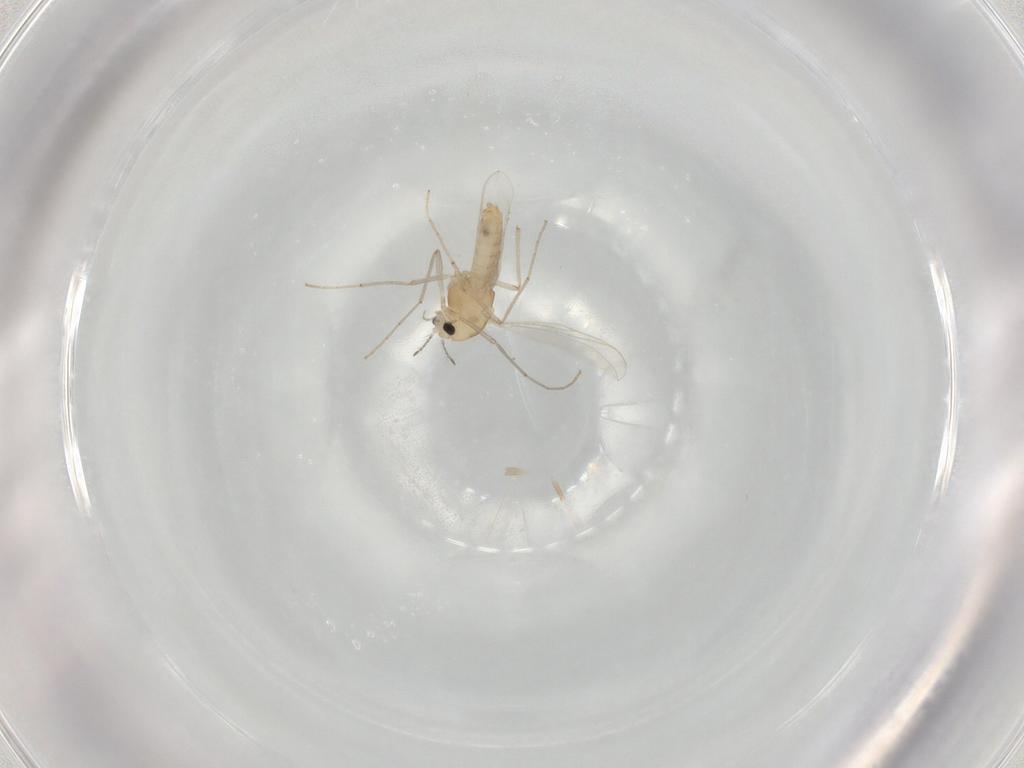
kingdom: Animalia
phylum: Arthropoda
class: Insecta
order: Diptera
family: Chironomidae
